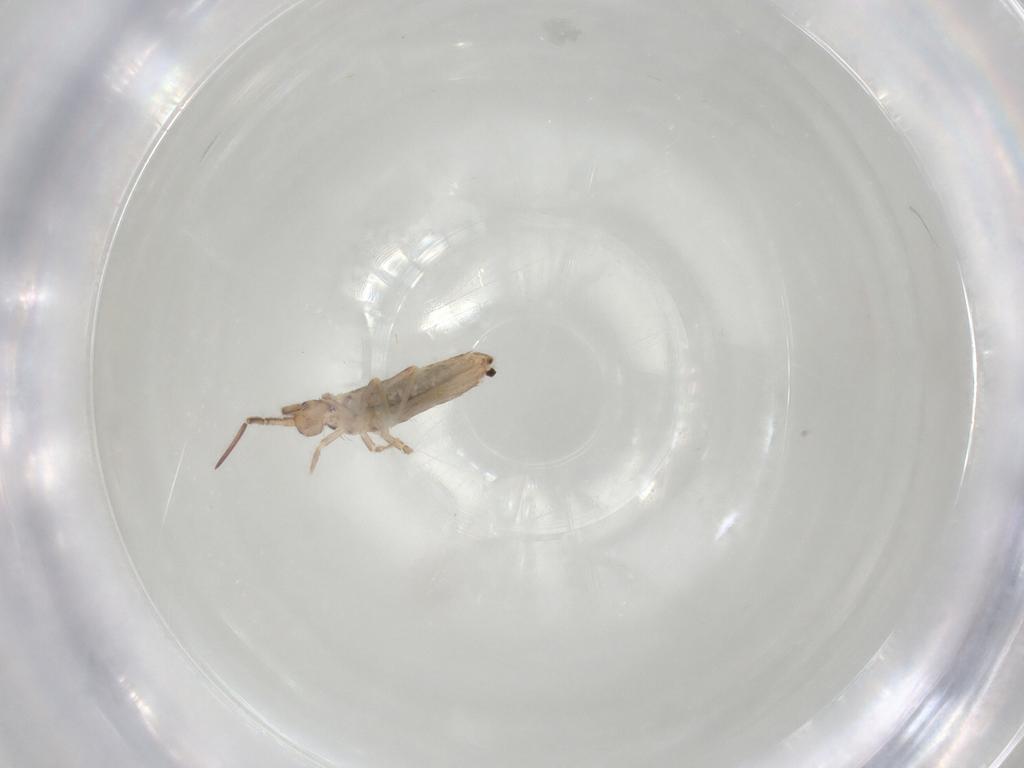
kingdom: Animalia
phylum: Arthropoda
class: Collembola
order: Entomobryomorpha
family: Entomobryidae
